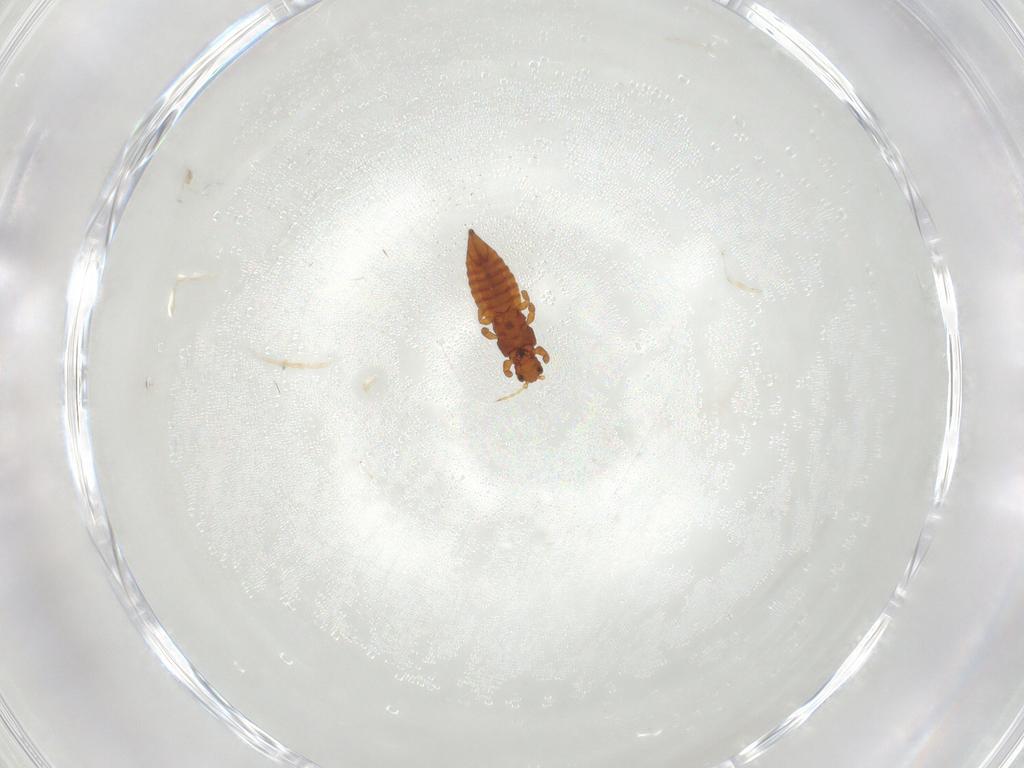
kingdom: Animalia
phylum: Arthropoda
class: Insecta
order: Thysanoptera
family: Thripidae
